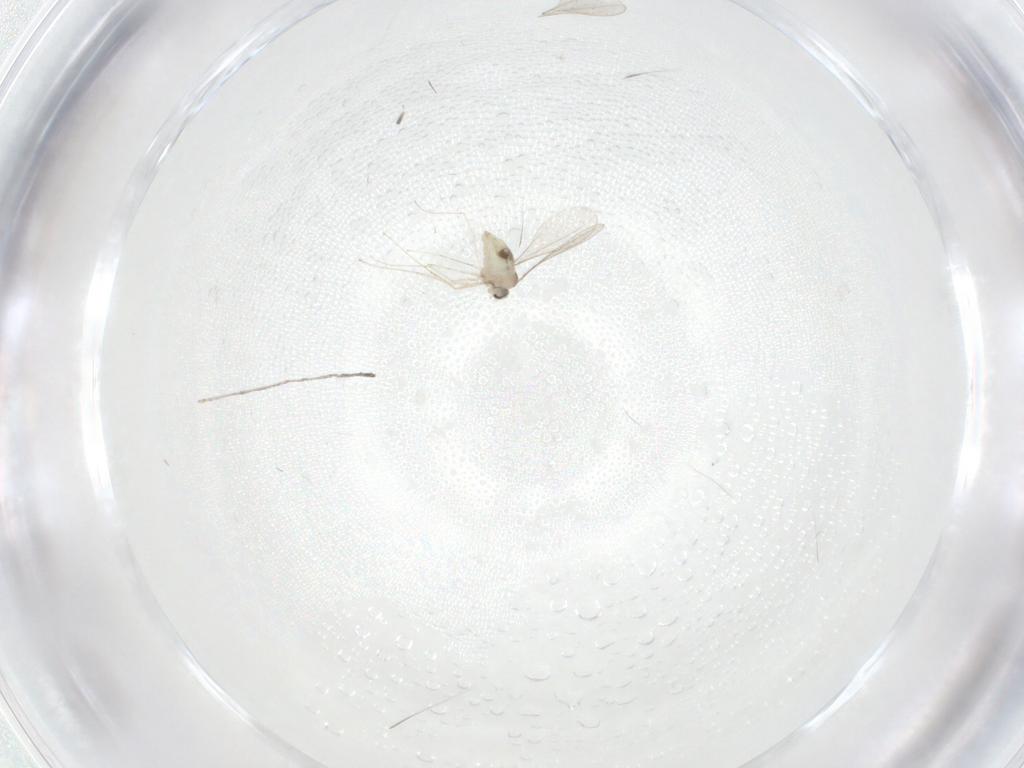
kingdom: Animalia
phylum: Arthropoda
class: Insecta
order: Diptera
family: Cecidomyiidae
